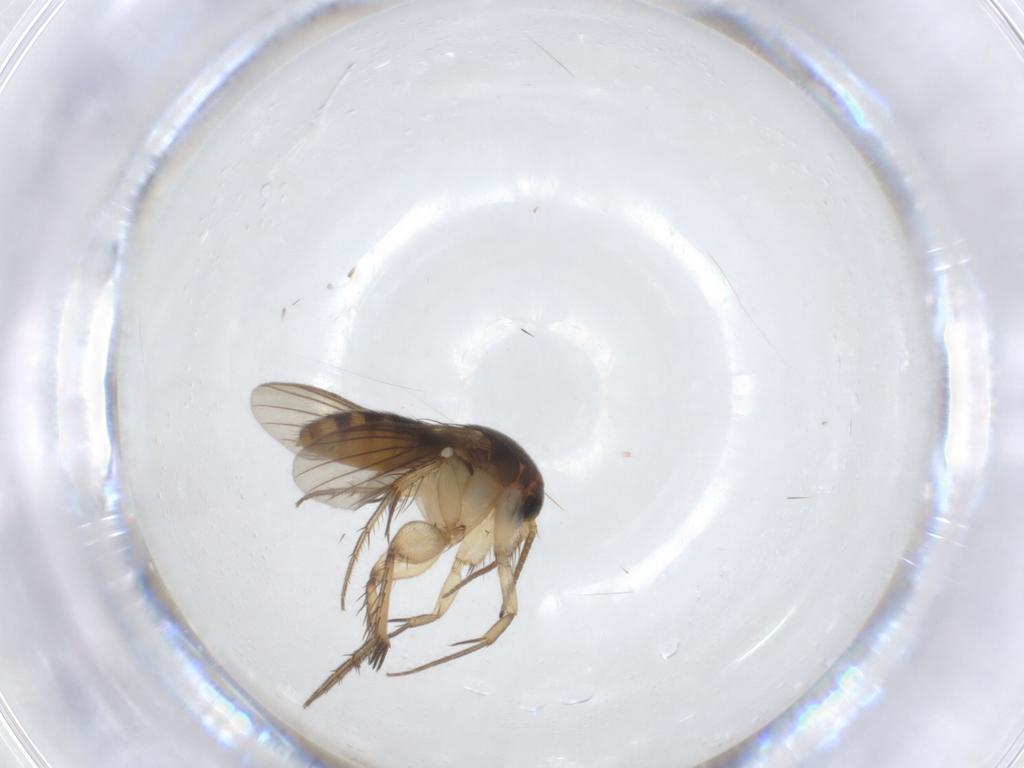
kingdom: Animalia
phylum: Arthropoda
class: Insecta
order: Diptera
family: Mycetophilidae
